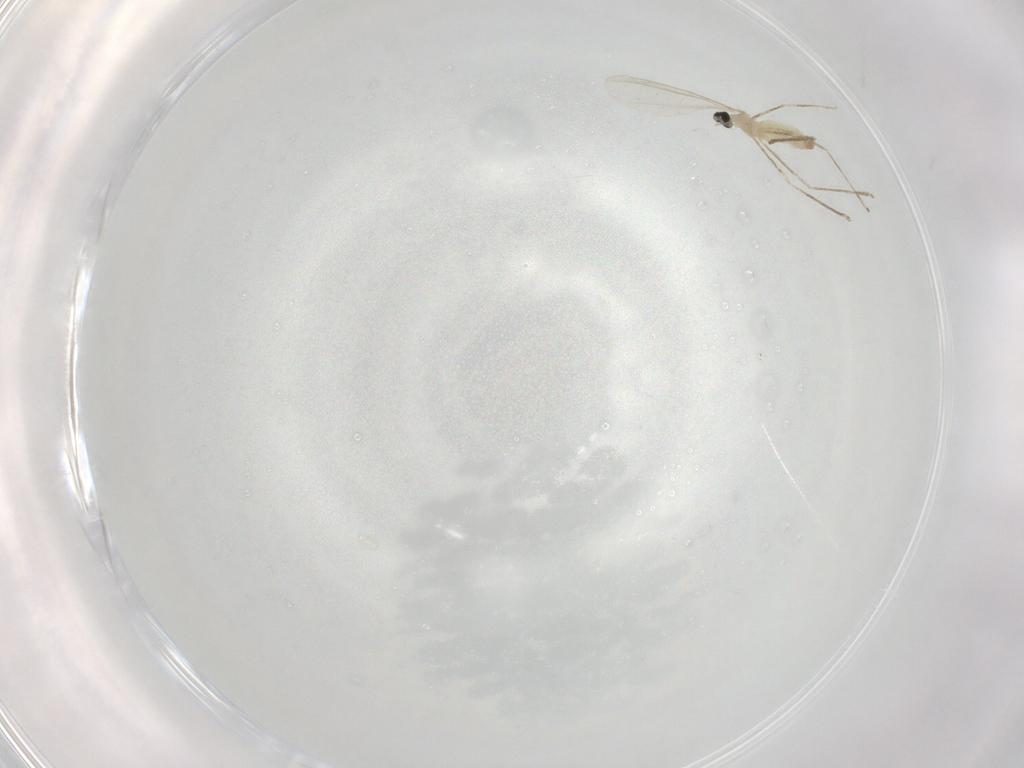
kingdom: Animalia
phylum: Arthropoda
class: Insecta
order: Diptera
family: Cecidomyiidae
